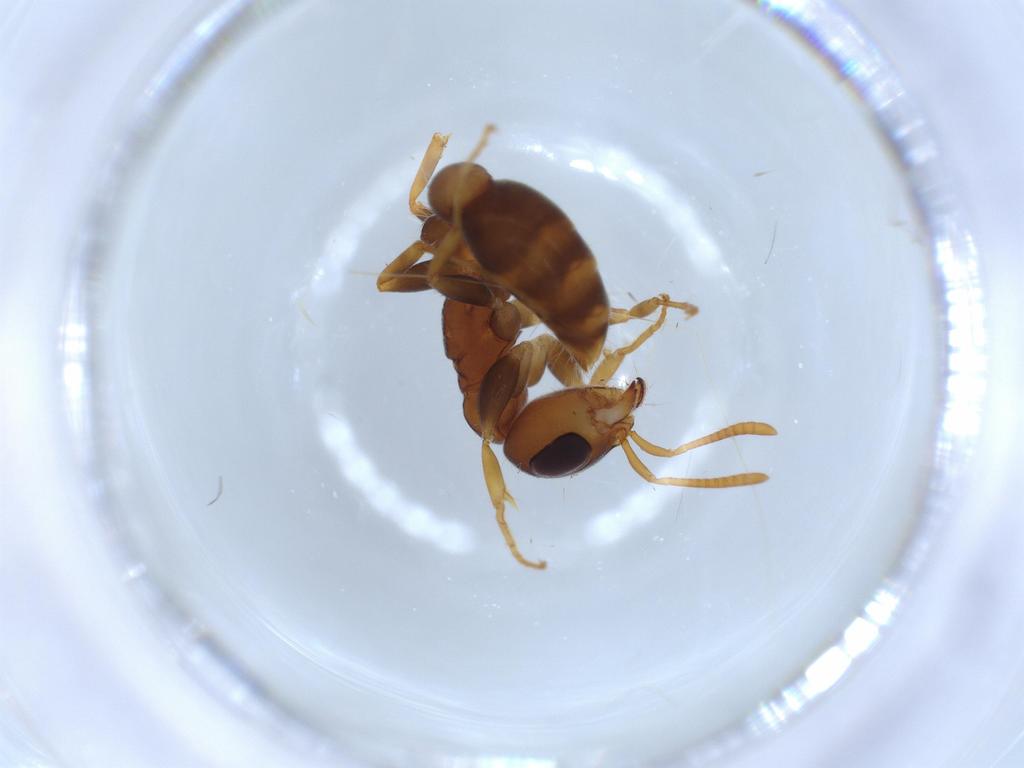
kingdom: Animalia
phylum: Arthropoda
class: Insecta
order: Hymenoptera
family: Formicidae
